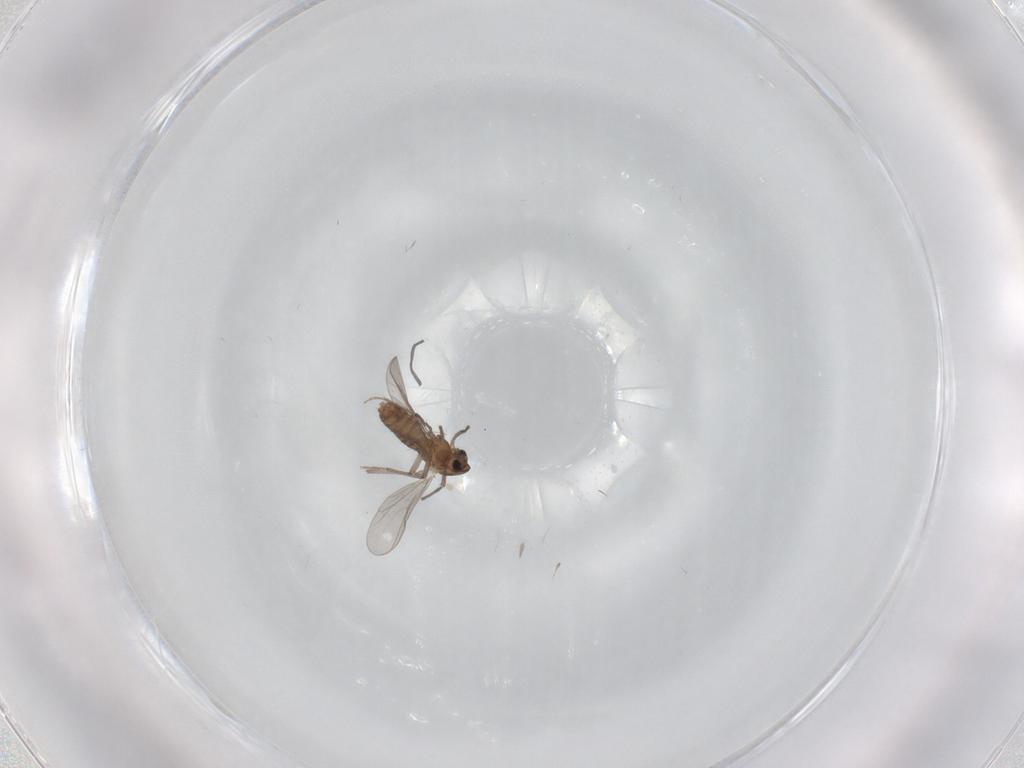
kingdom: Animalia
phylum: Arthropoda
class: Insecta
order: Diptera
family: Chironomidae
